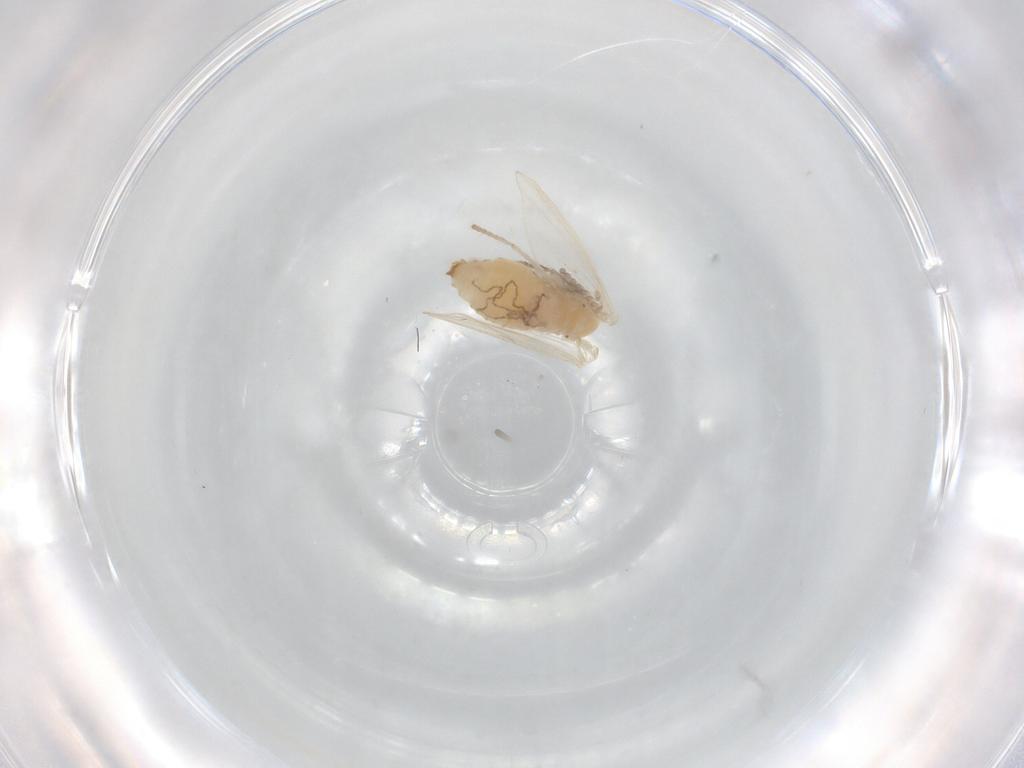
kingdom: Animalia
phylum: Arthropoda
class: Insecta
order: Diptera
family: Psychodidae
